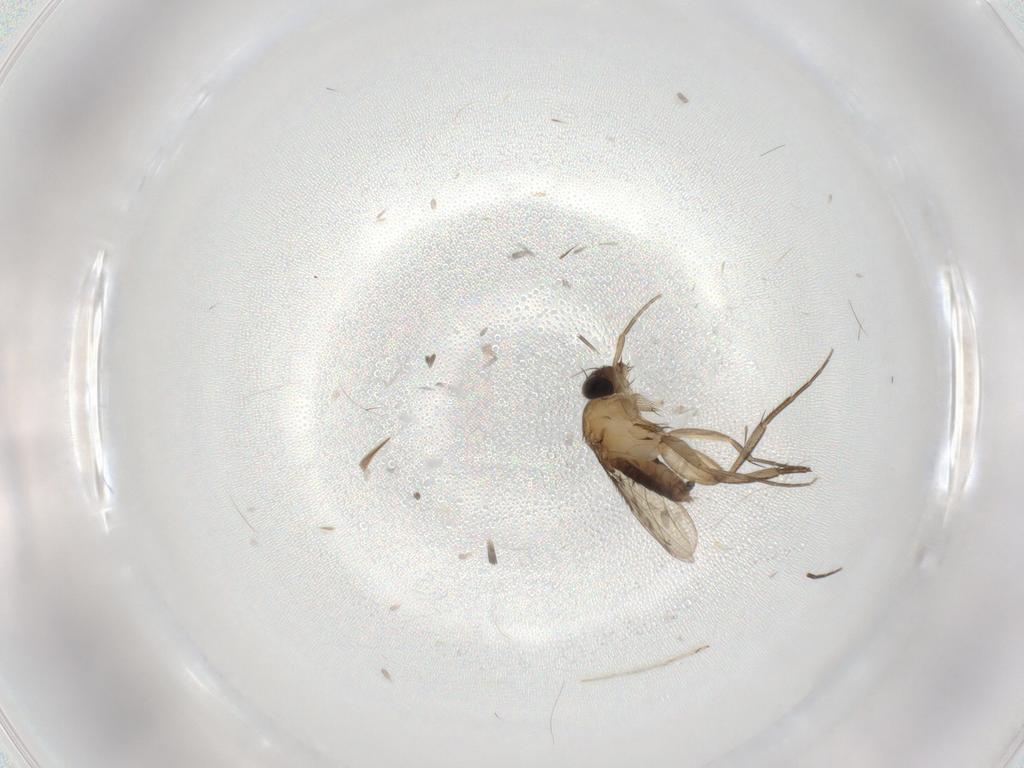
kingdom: Animalia
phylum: Arthropoda
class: Insecta
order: Diptera
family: Phoridae
